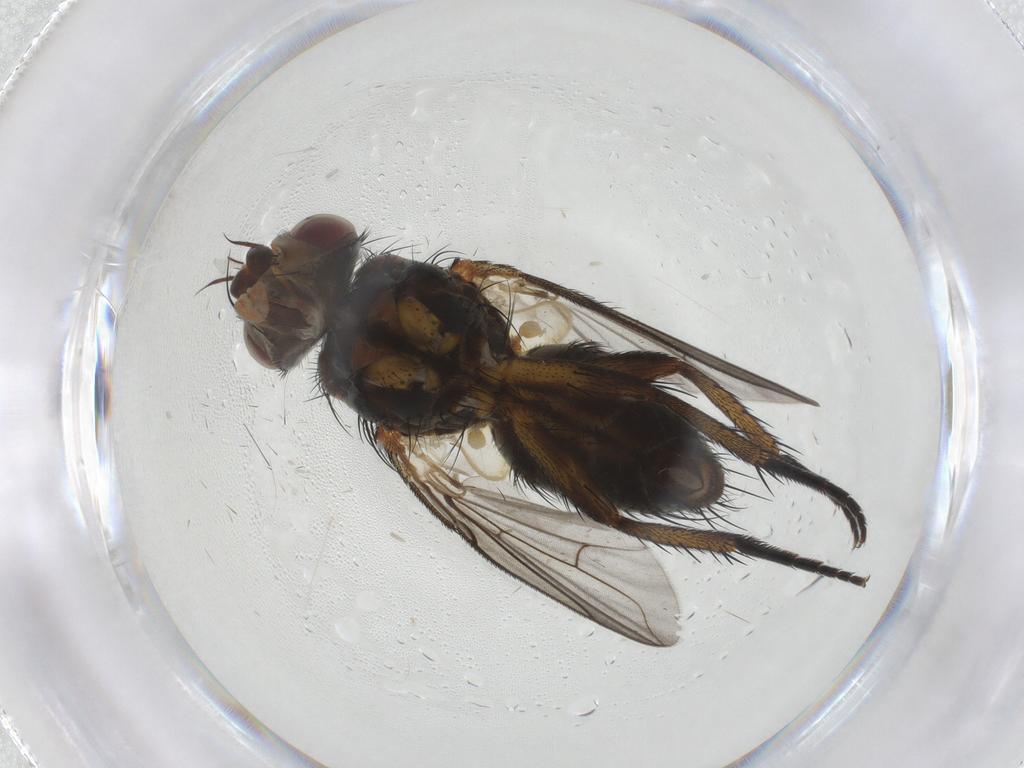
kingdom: Animalia
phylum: Arthropoda
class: Insecta
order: Diptera
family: Tachinidae
